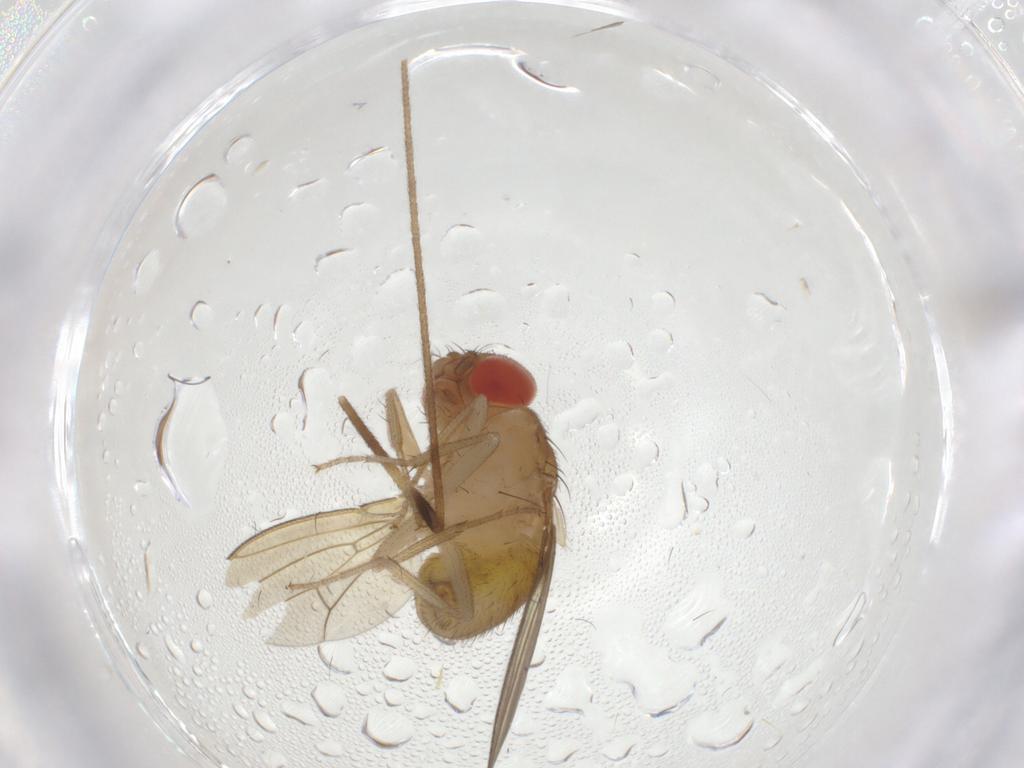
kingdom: Animalia
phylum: Arthropoda
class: Insecta
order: Diptera
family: Drosophilidae
